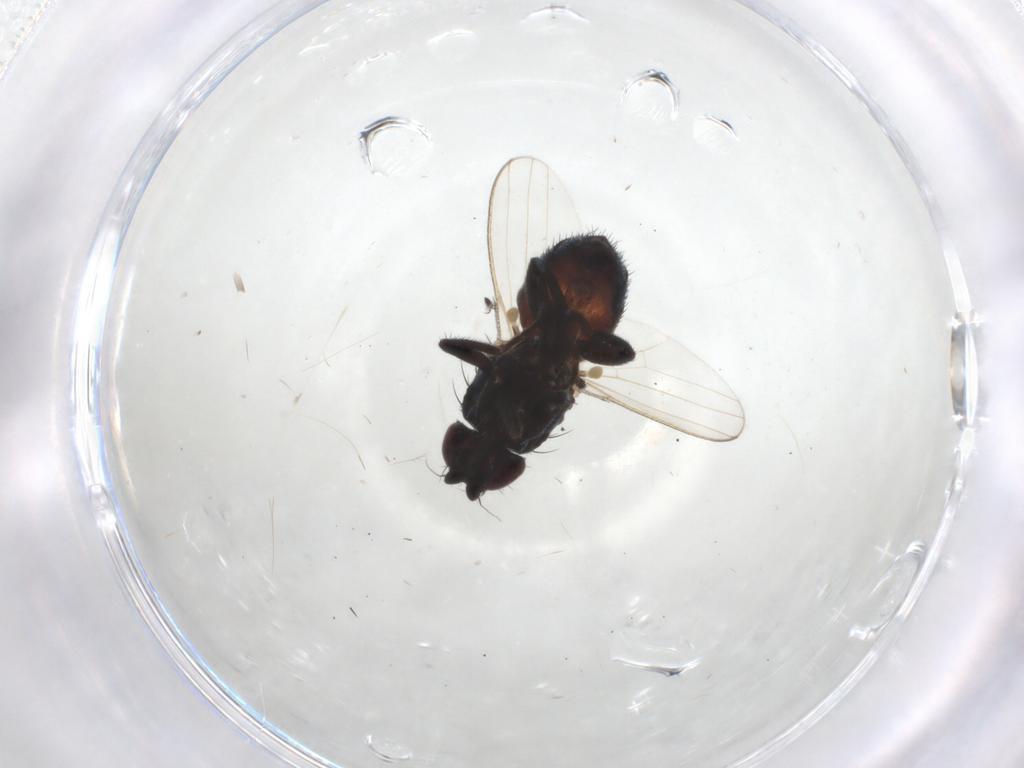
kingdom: Animalia
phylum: Arthropoda
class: Insecta
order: Diptera
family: Milichiidae
